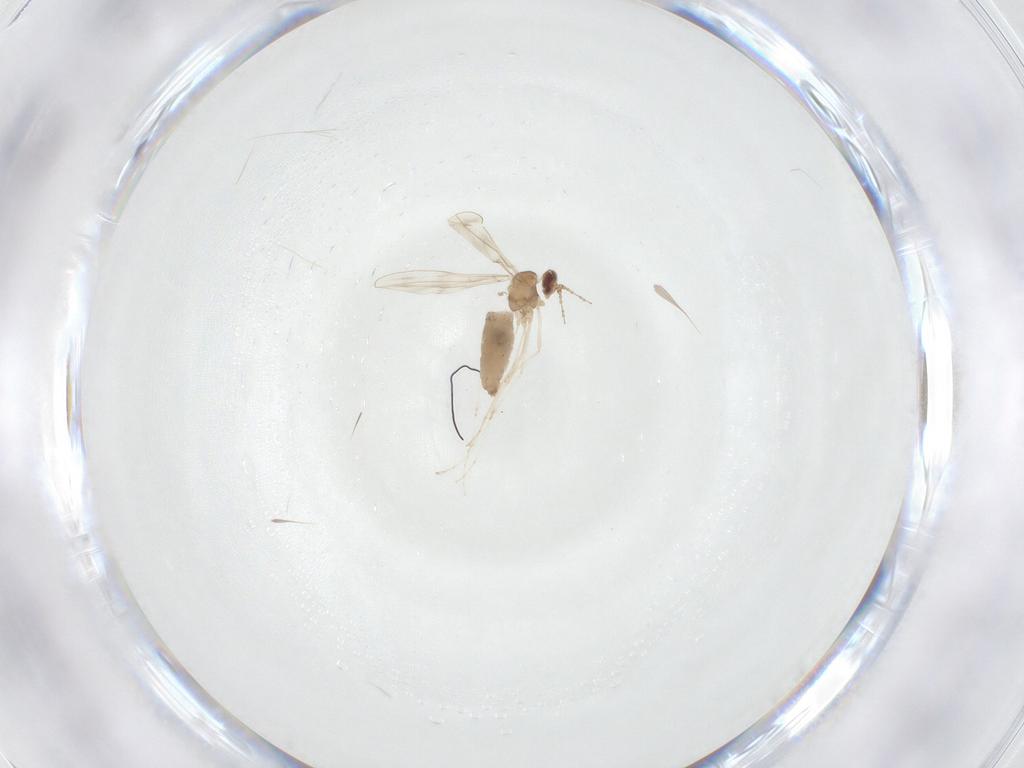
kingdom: Animalia
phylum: Arthropoda
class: Insecta
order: Diptera
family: Cecidomyiidae
